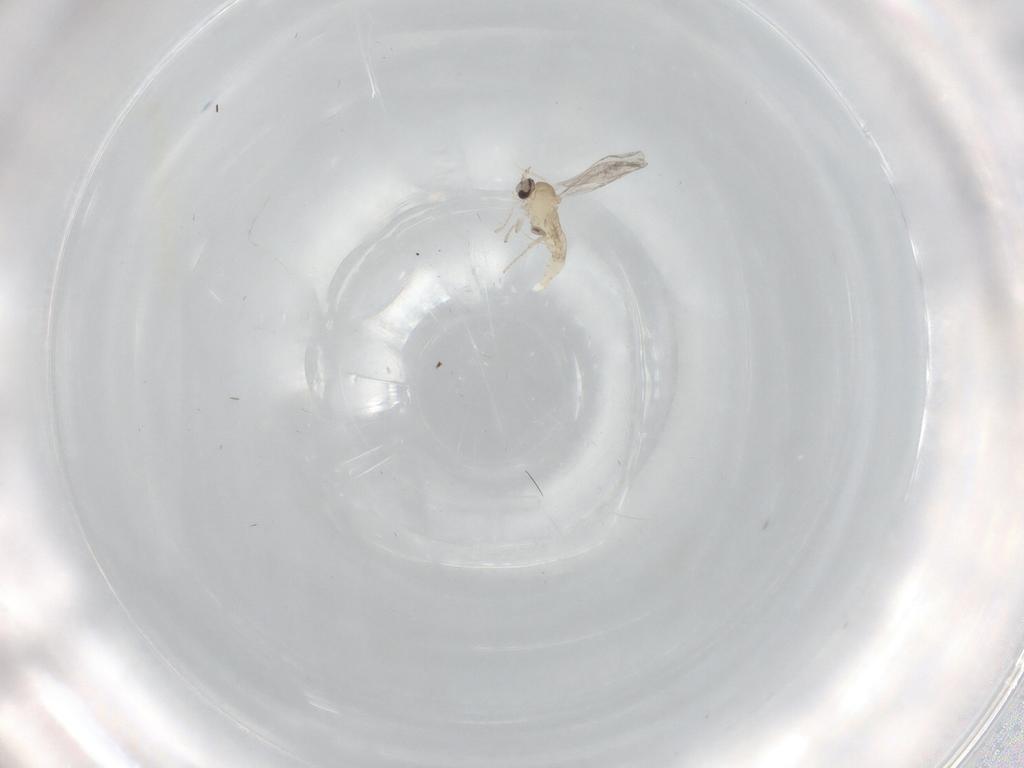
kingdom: Animalia
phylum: Arthropoda
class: Insecta
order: Diptera
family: Cecidomyiidae
